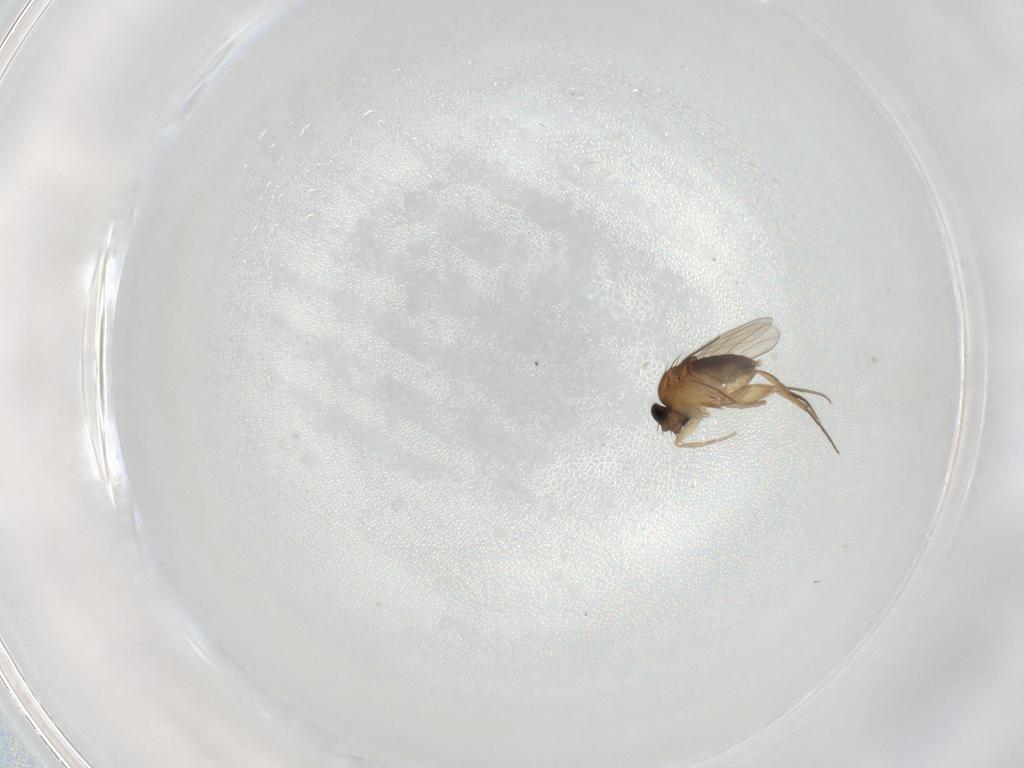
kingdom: Animalia
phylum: Arthropoda
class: Insecta
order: Diptera
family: Phoridae
